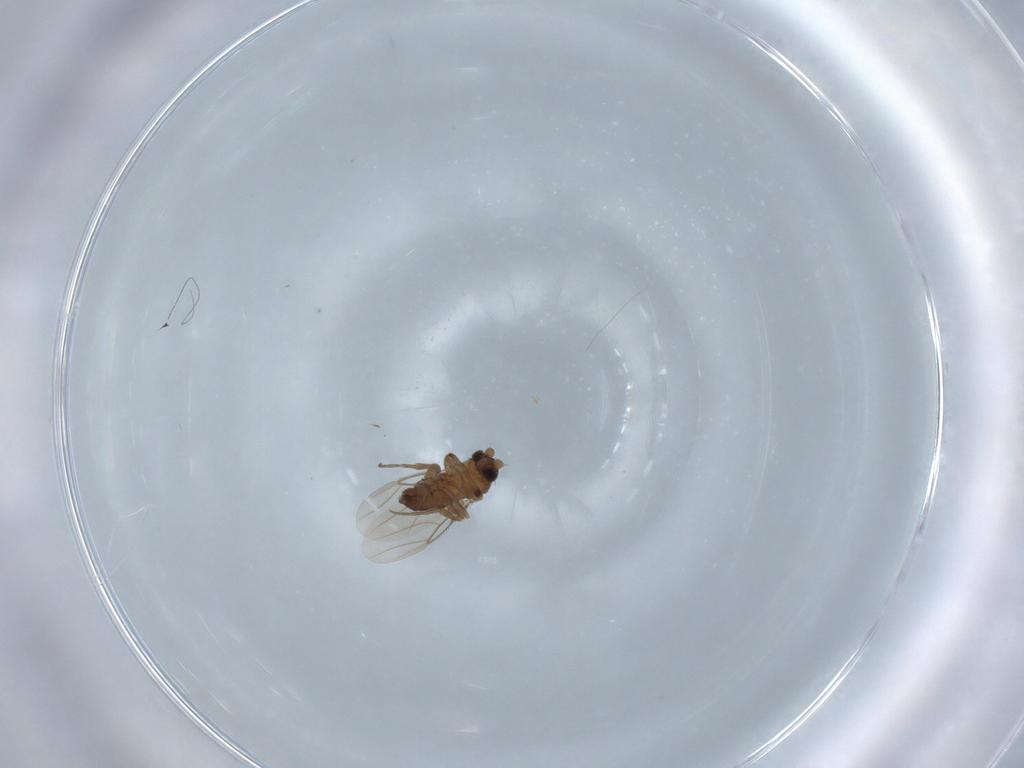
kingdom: Animalia
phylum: Arthropoda
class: Insecta
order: Diptera
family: Phoridae
